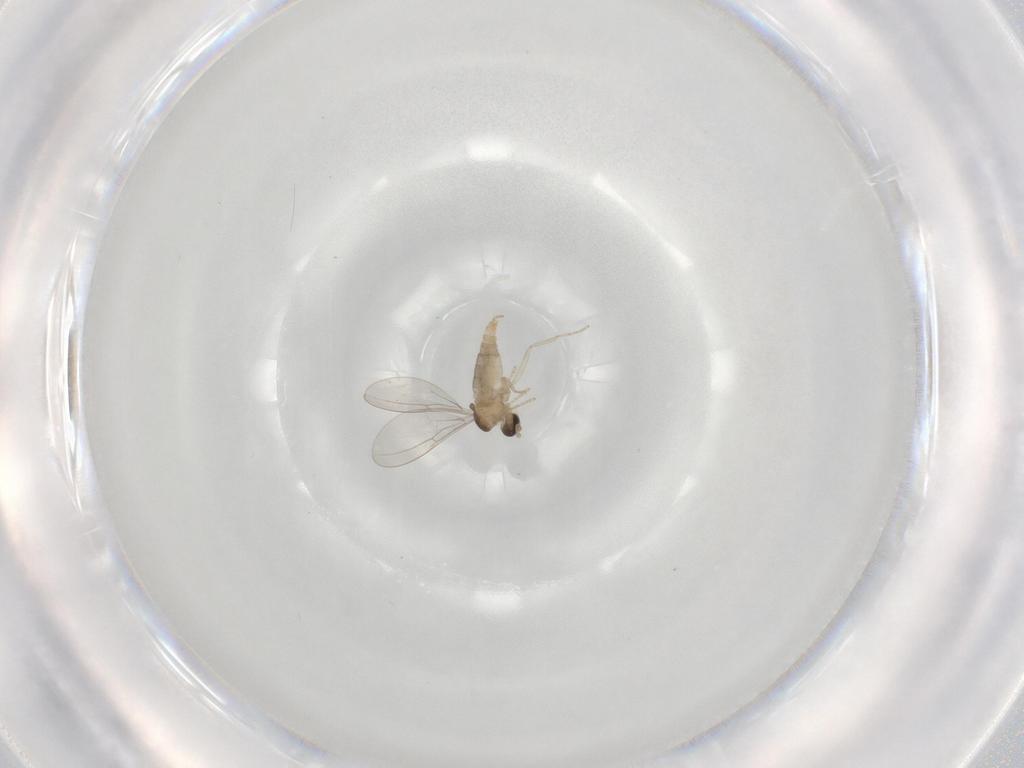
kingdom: Animalia
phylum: Arthropoda
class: Insecta
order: Diptera
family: Cecidomyiidae
